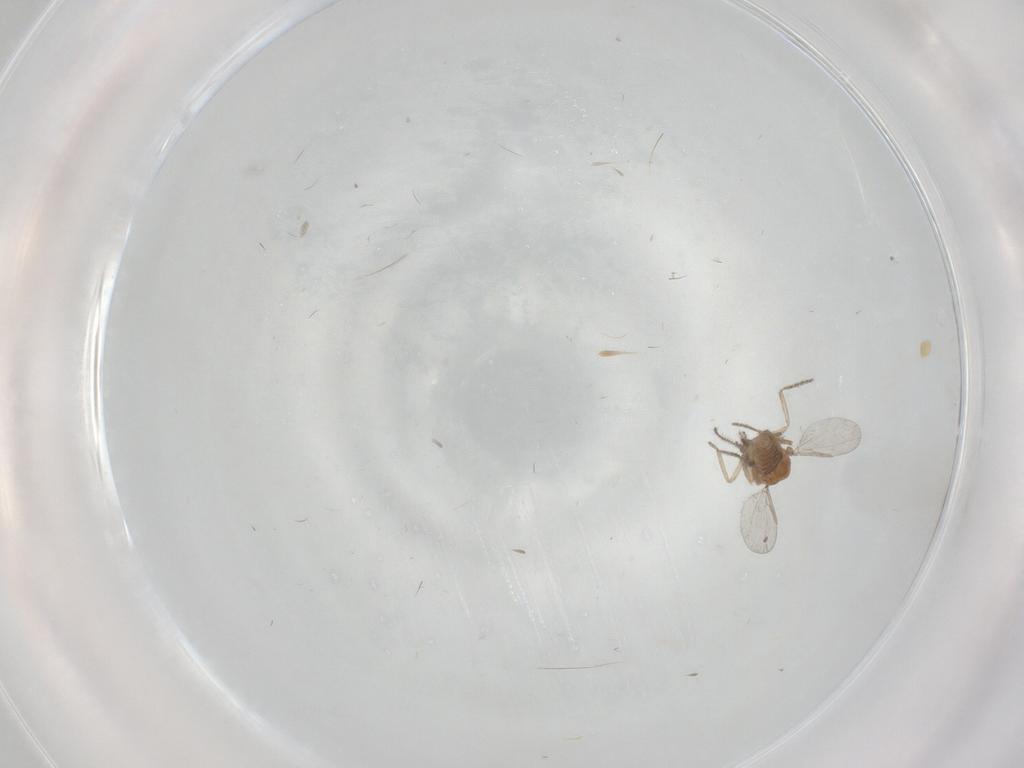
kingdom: Animalia
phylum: Arthropoda
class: Insecta
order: Diptera
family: Ceratopogonidae
